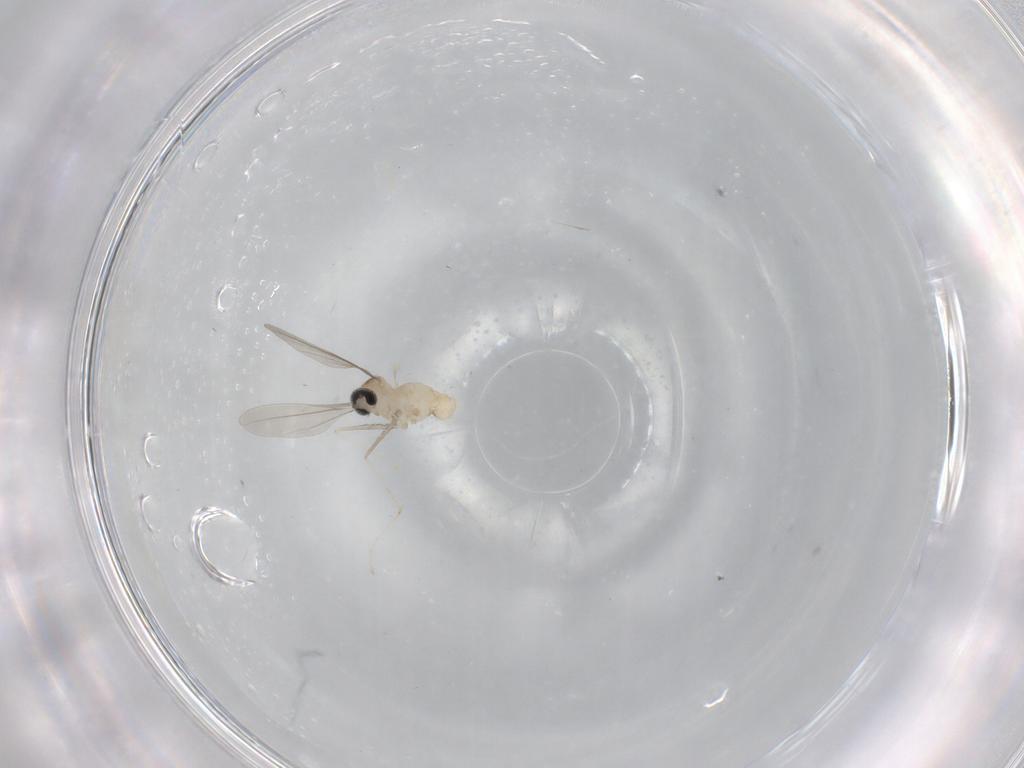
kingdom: Animalia
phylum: Arthropoda
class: Insecta
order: Diptera
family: Cecidomyiidae
